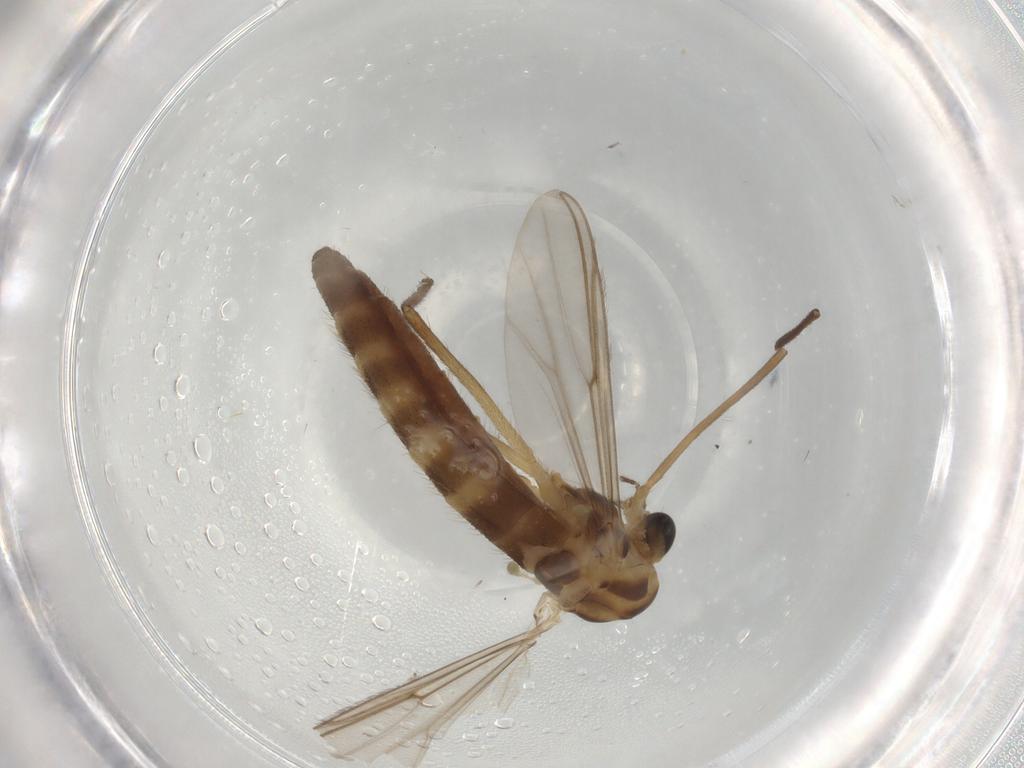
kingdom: Animalia
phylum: Arthropoda
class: Insecta
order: Diptera
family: Chironomidae
